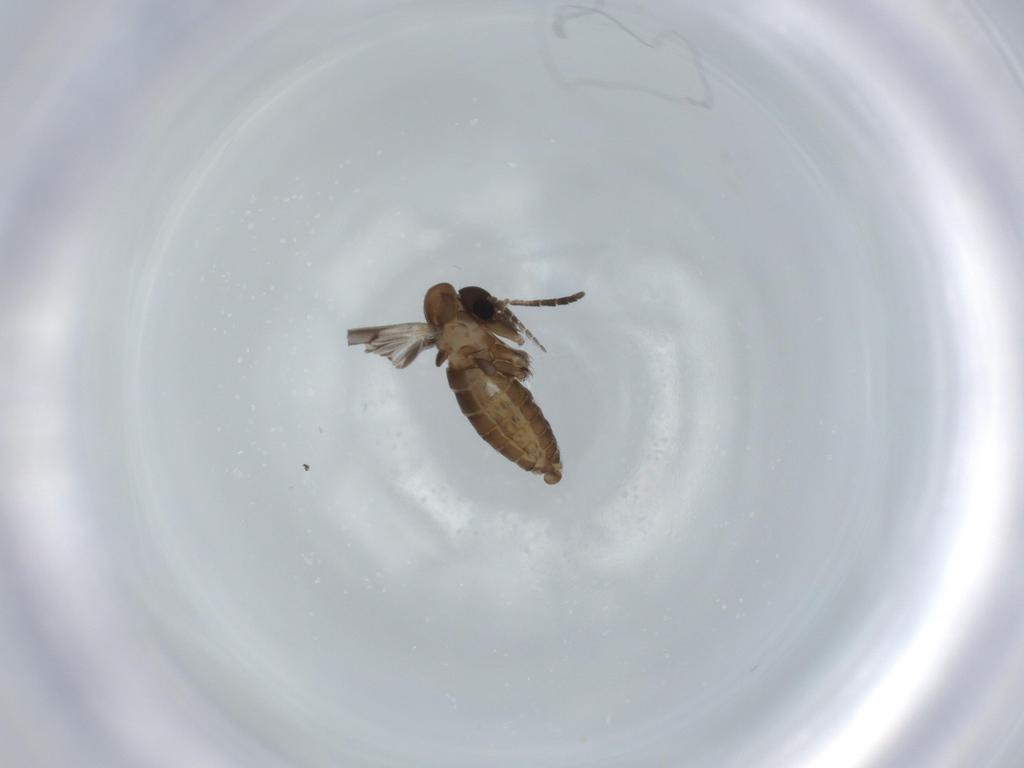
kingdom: Animalia
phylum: Arthropoda
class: Insecta
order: Diptera
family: Psychodidae
